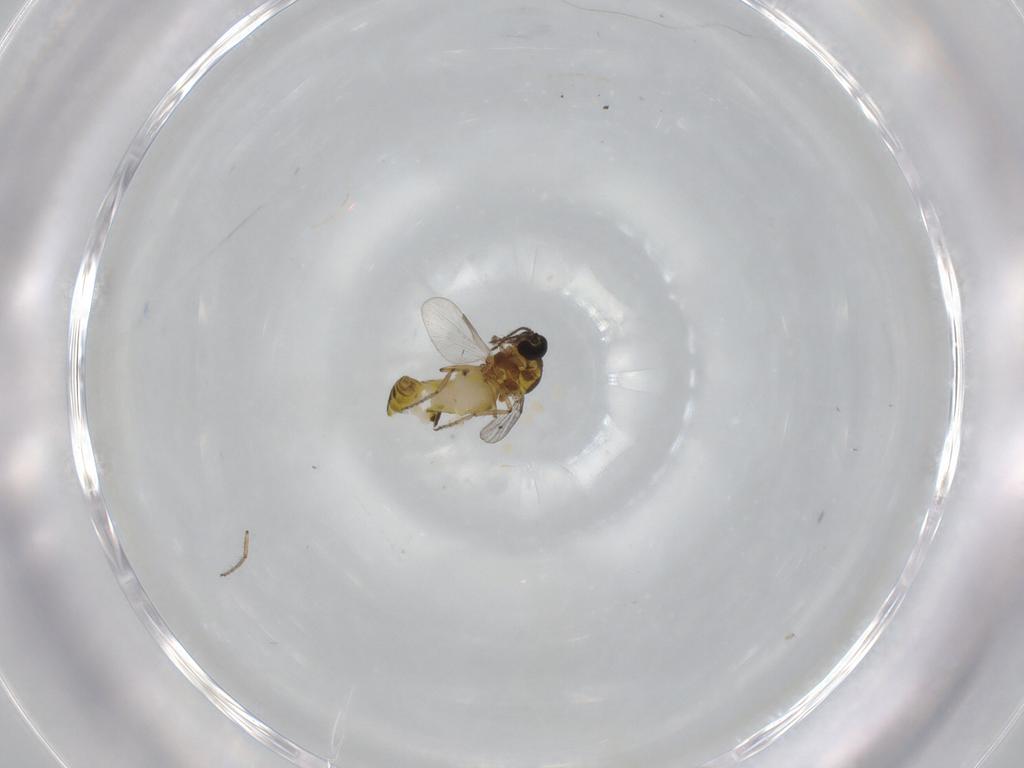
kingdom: Animalia
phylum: Arthropoda
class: Insecta
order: Diptera
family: Ceratopogonidae
